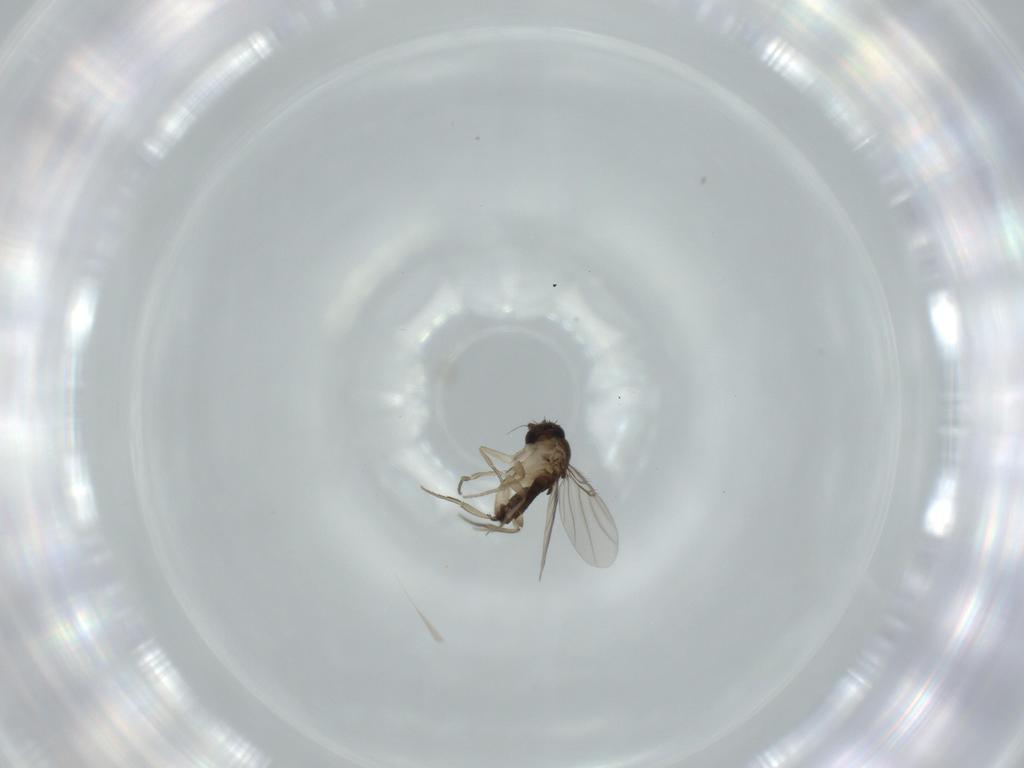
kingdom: Animalia
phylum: Arthropoda
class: Insecta
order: Diptera
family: Phoridae
